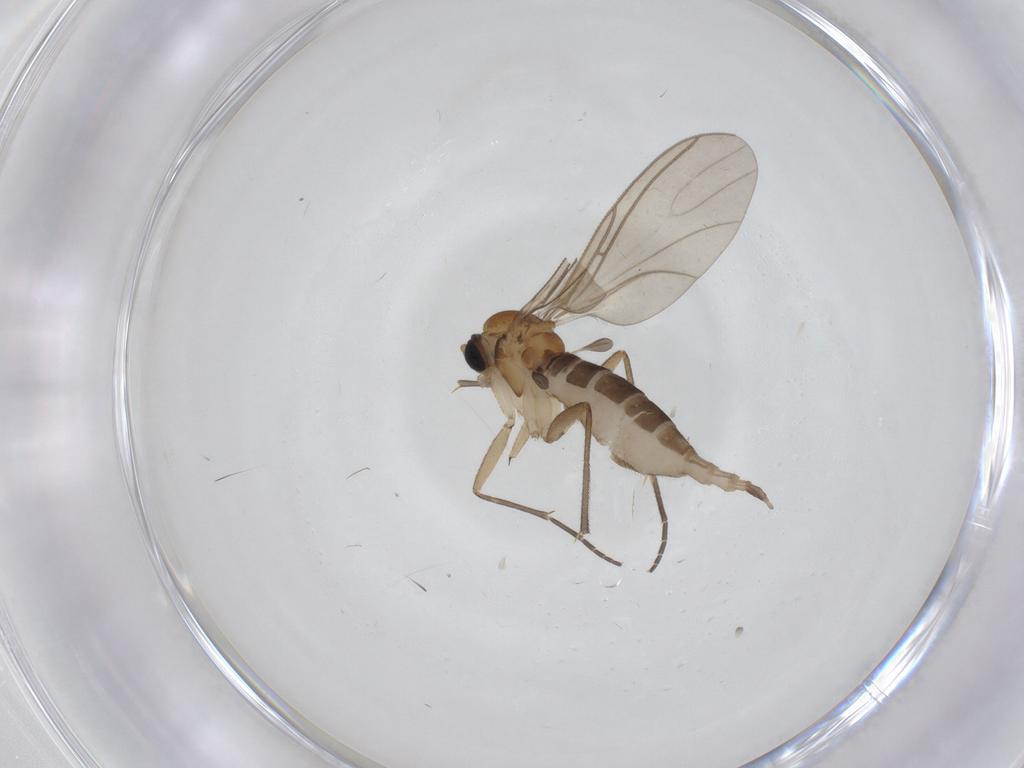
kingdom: Animalia
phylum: Arthropoda
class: Insecta
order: Diptera
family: Sciaridae
